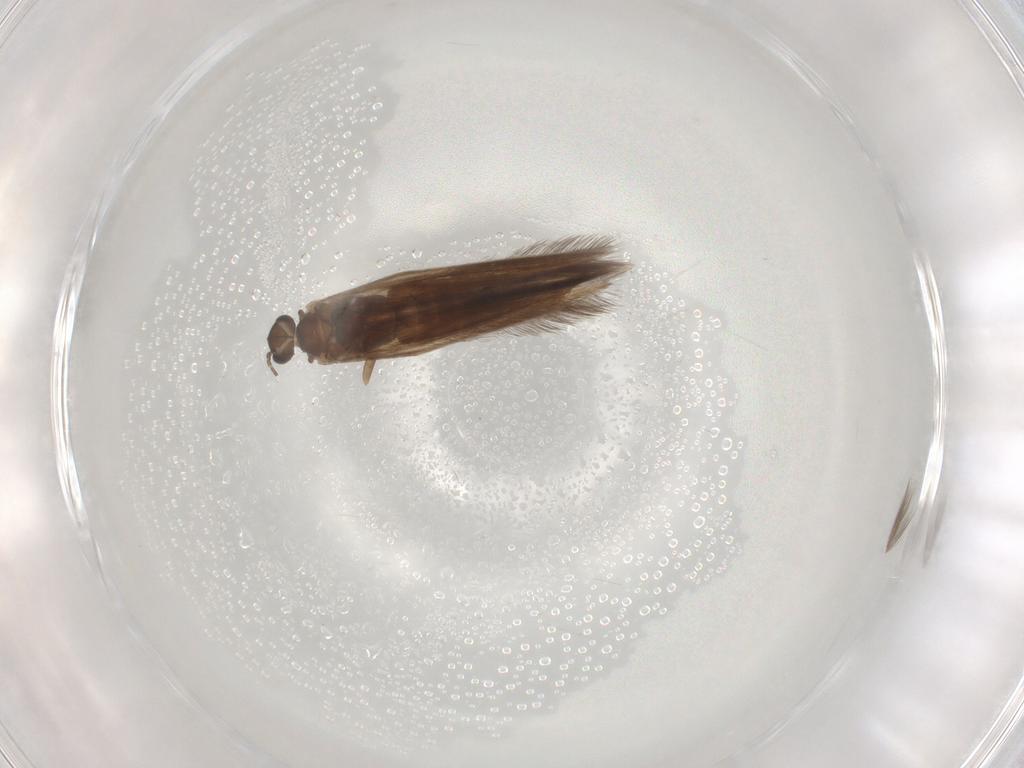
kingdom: Animalia
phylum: Arthropoda
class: Insecta
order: Trichoptera
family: Hydroptilidae
